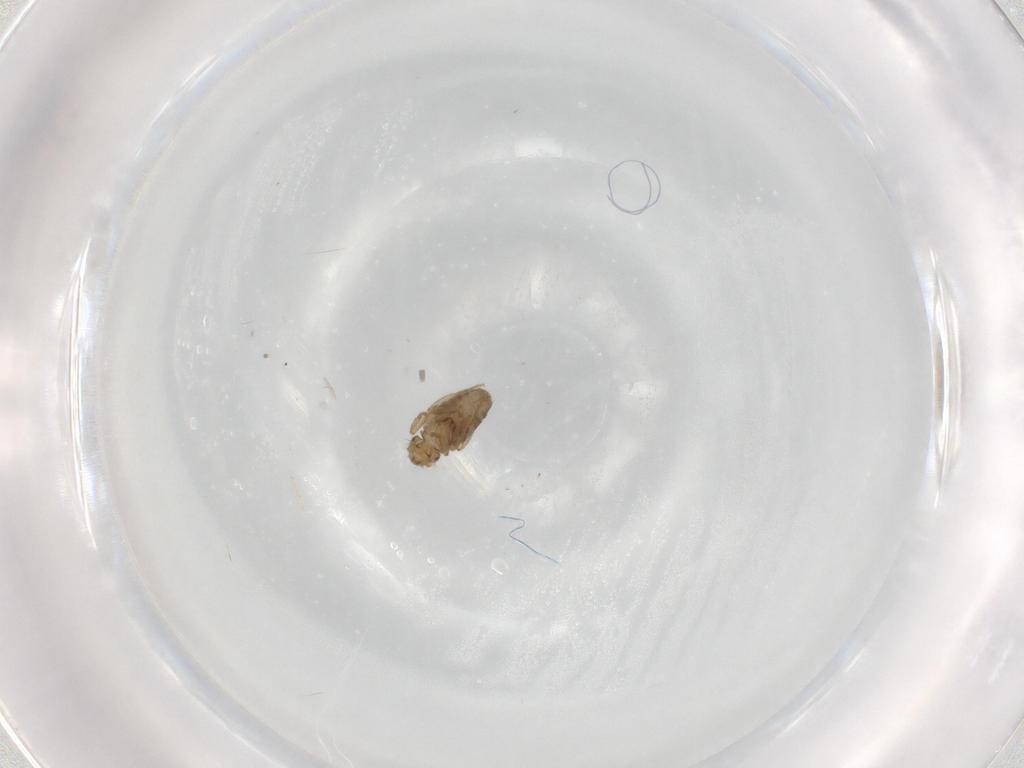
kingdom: Animalia
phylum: Arthropoda
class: Insecta
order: Diptera
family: Phoridae
